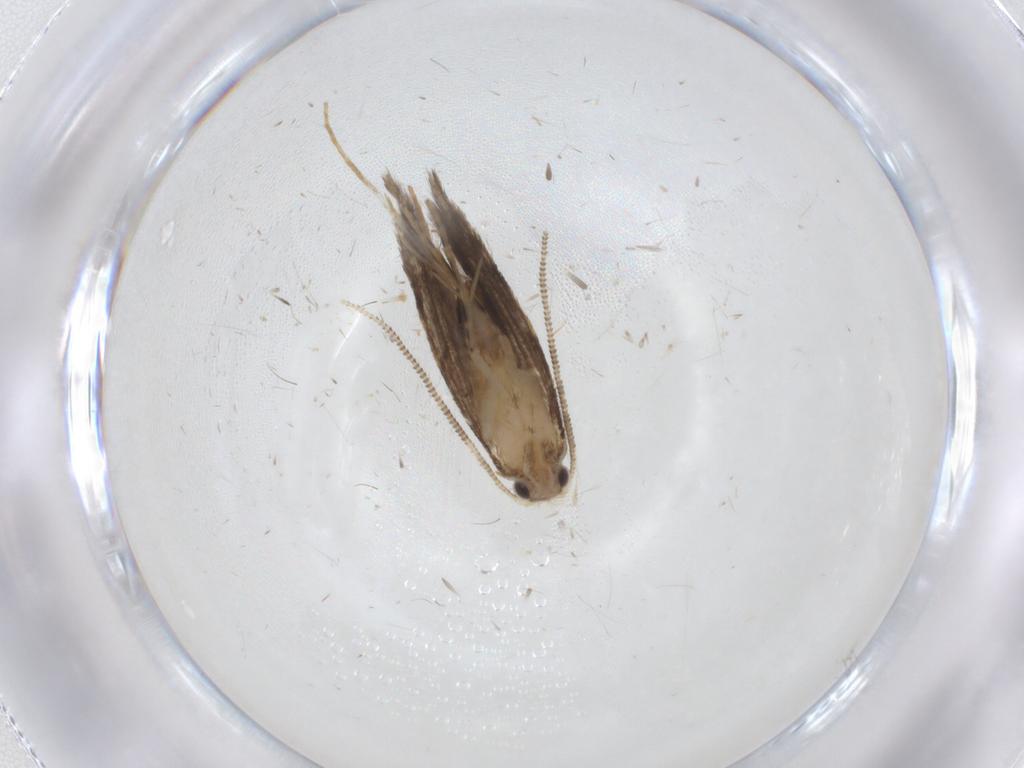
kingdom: Animalia
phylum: Arthropoda
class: Insecta
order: Lepidoptera
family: Tineidae
